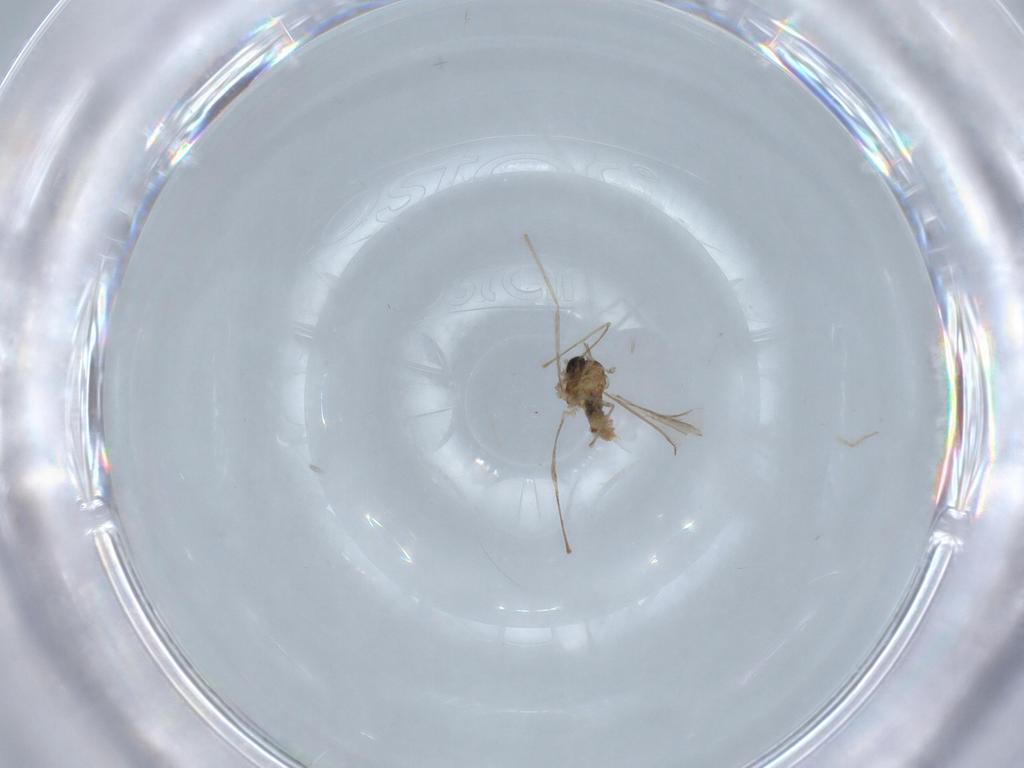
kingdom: Animalia
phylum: Arthropoda
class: Insecta
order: Diptera
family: Cecidomyiidae
